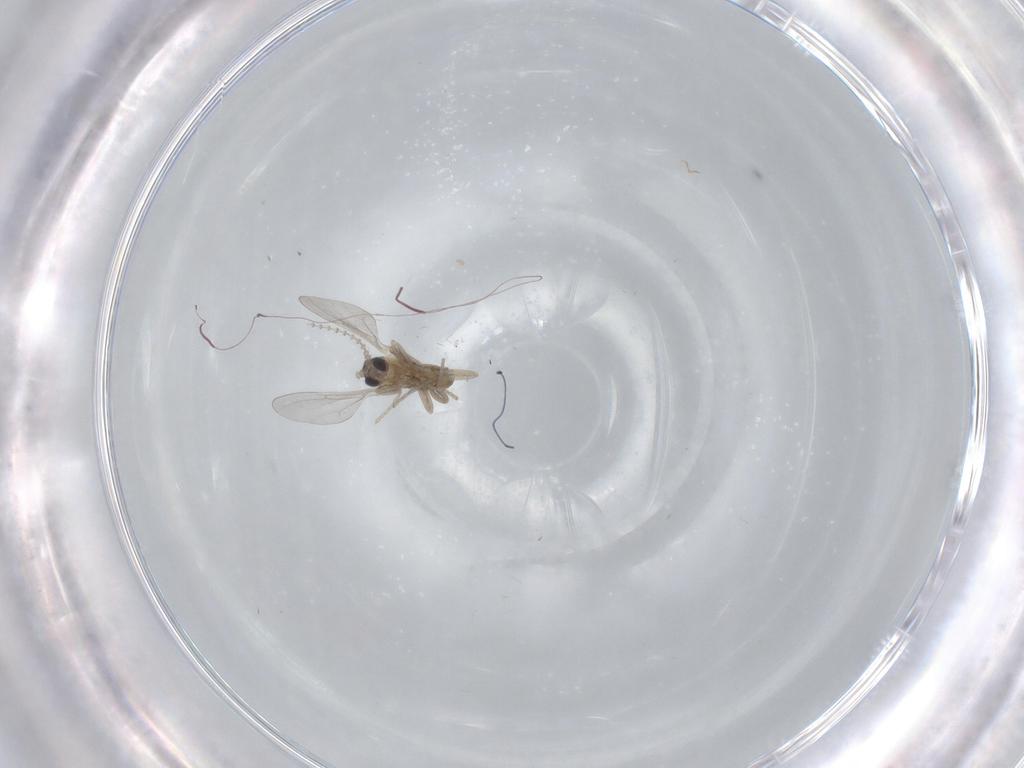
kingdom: Animalia
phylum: Arthropoda
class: Insecta
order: Diptera
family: Cecidomyiidae
